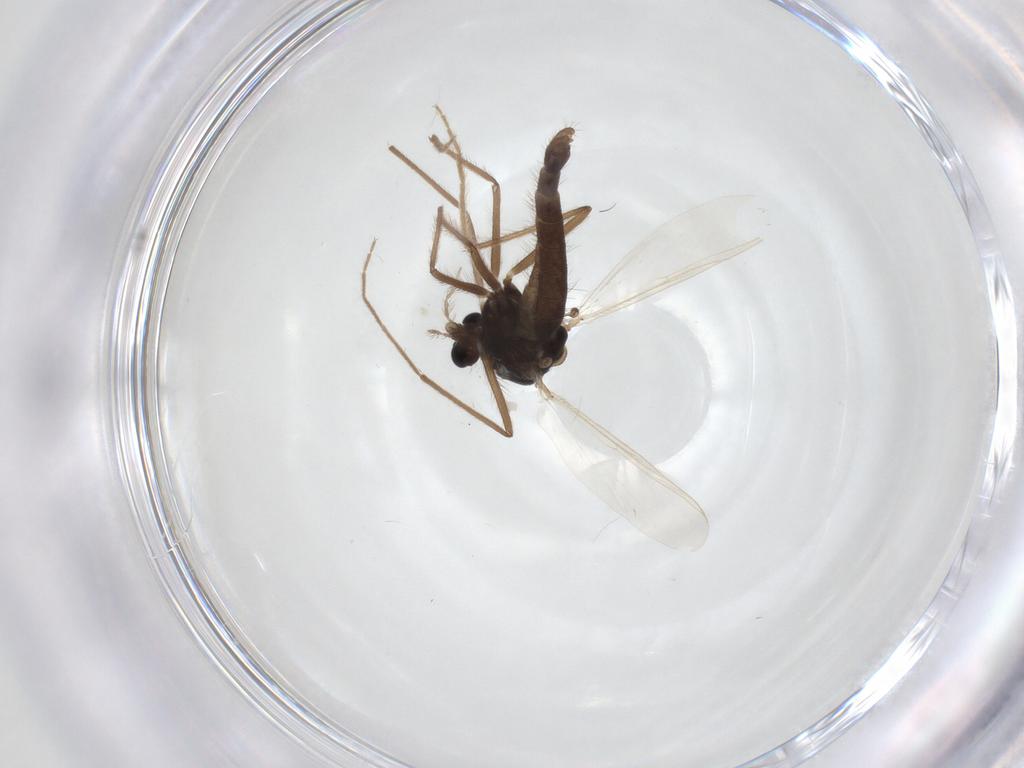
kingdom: Animalia
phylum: Arthropoda
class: Insecta
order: Diptera
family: Chironomidae
